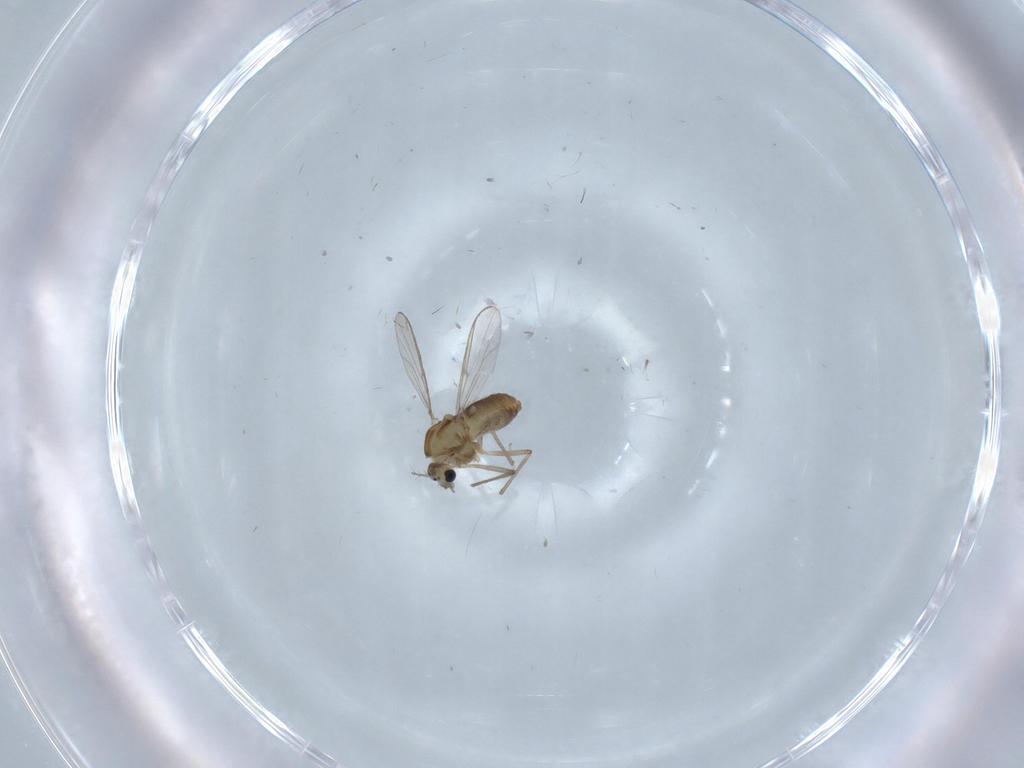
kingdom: Animalia
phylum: Arthropoda
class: Insecta
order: Diptera
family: Chironomidae
